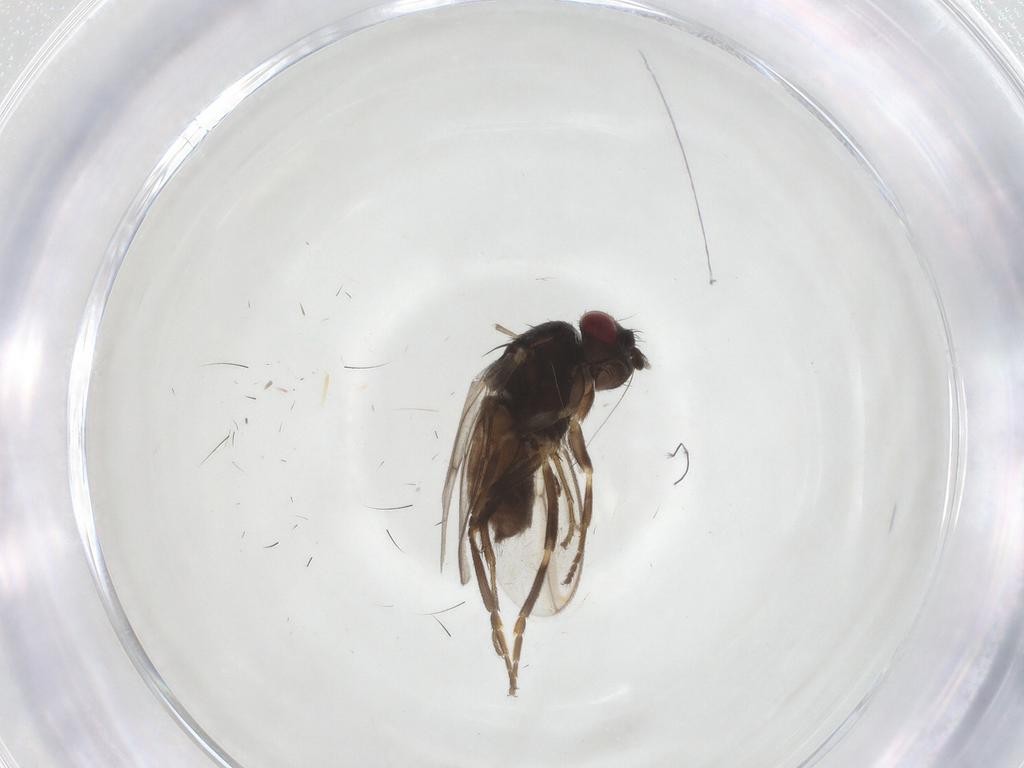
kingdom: Animalia
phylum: Arthropoda
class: Insecta
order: Diptera
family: Sphaeroceridae
